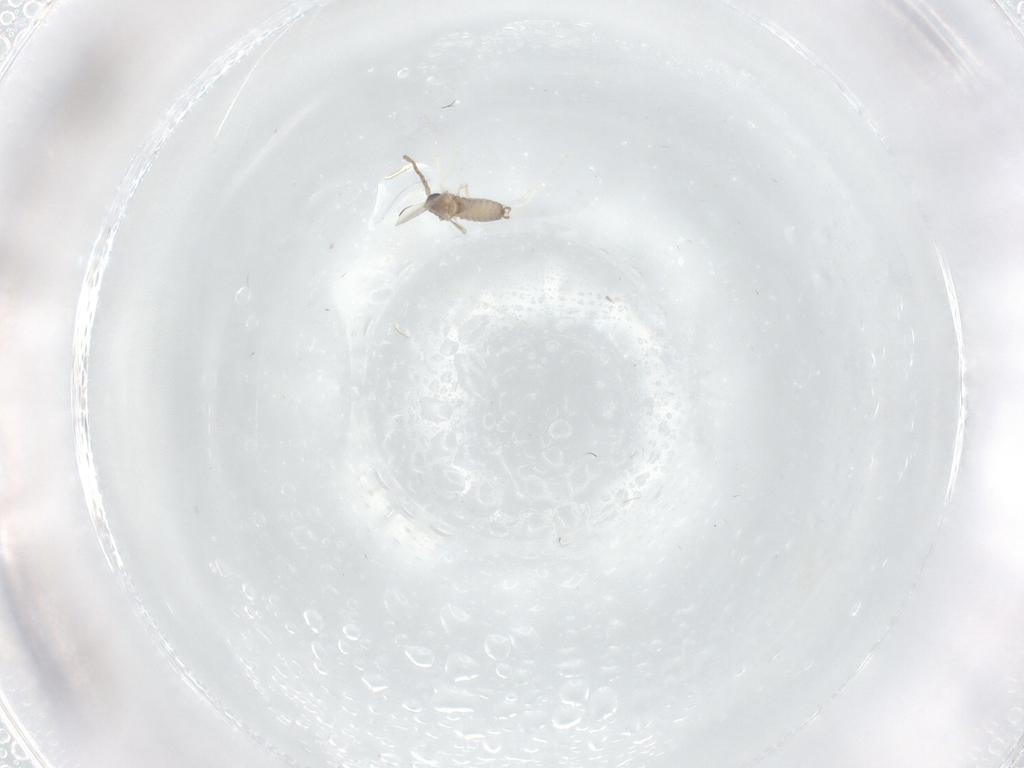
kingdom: Animalia
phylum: Arthropoda
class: Insecta
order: Diptera
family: Cecidomyiidae
